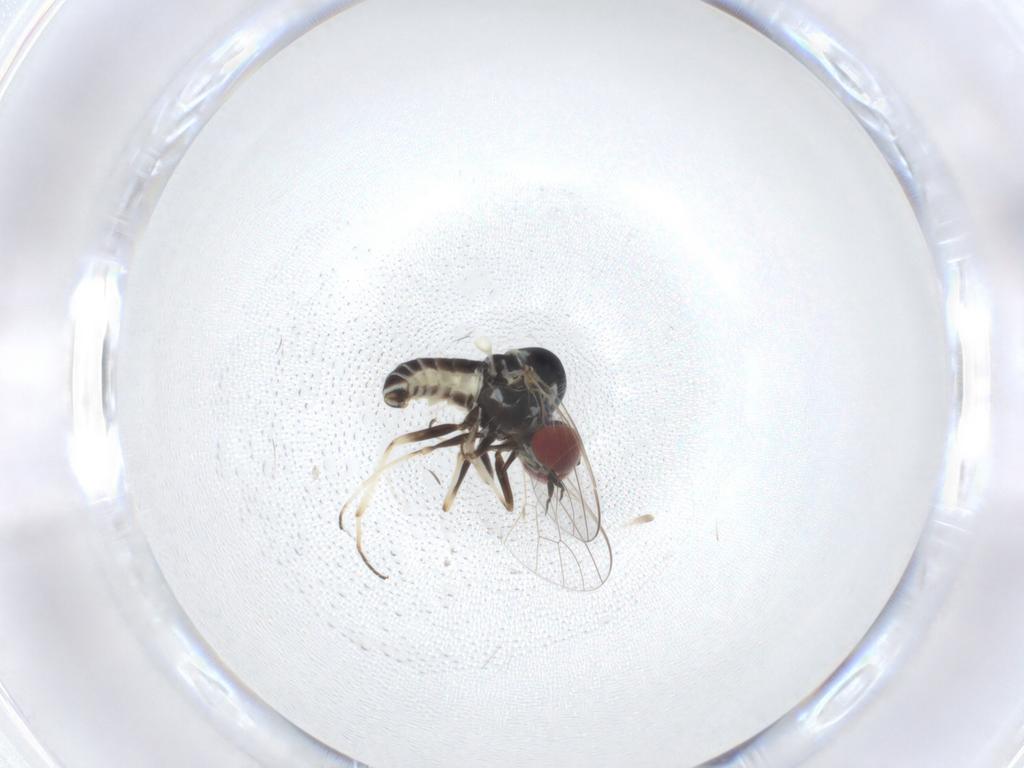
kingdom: Animalia
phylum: Arthropoda
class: Insecta
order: Diptera
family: Mythicomyiidae
